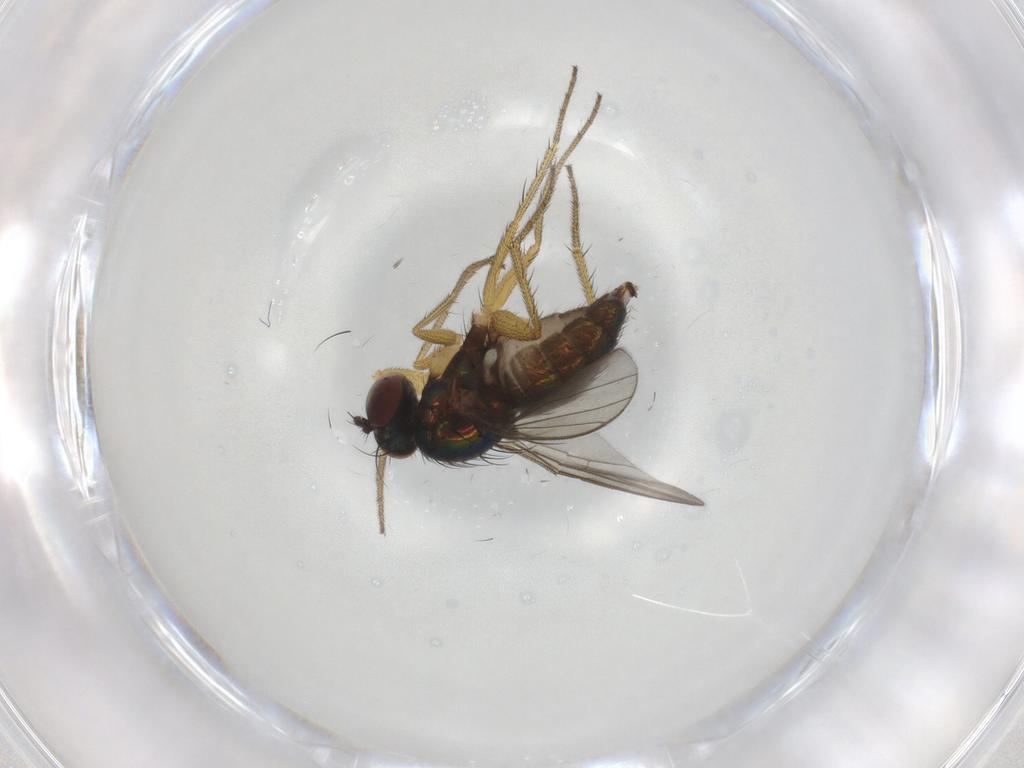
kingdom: Animalia
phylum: Arthropoda
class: Insecta
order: Diptera
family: Dolichopodidae
